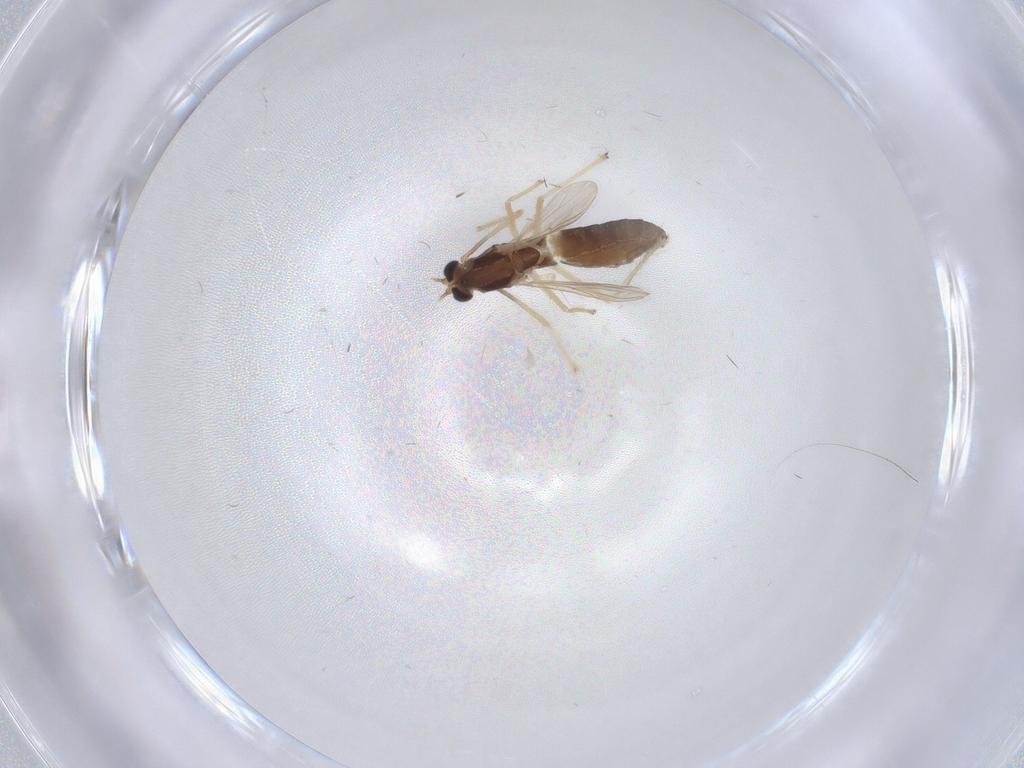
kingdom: Animalia
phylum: Arthropoda
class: Insecta
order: Diptera
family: Chironomidae
